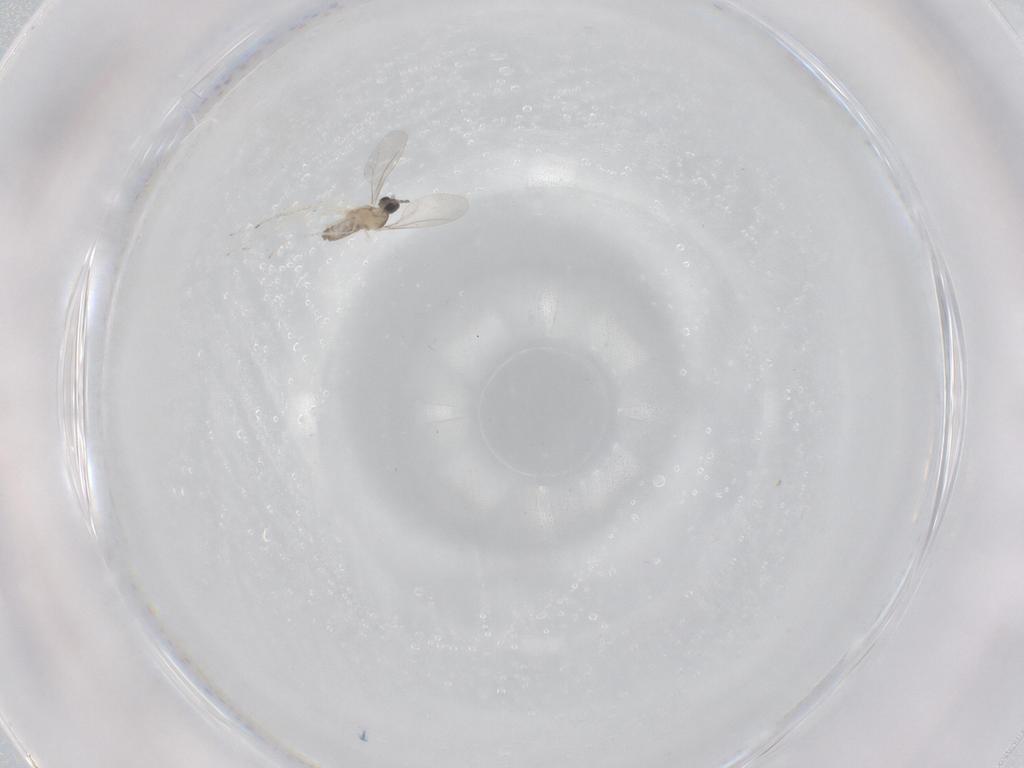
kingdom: Animalia
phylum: Arthropoda
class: Insecta
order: Diptera
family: Cecidomyiidae
